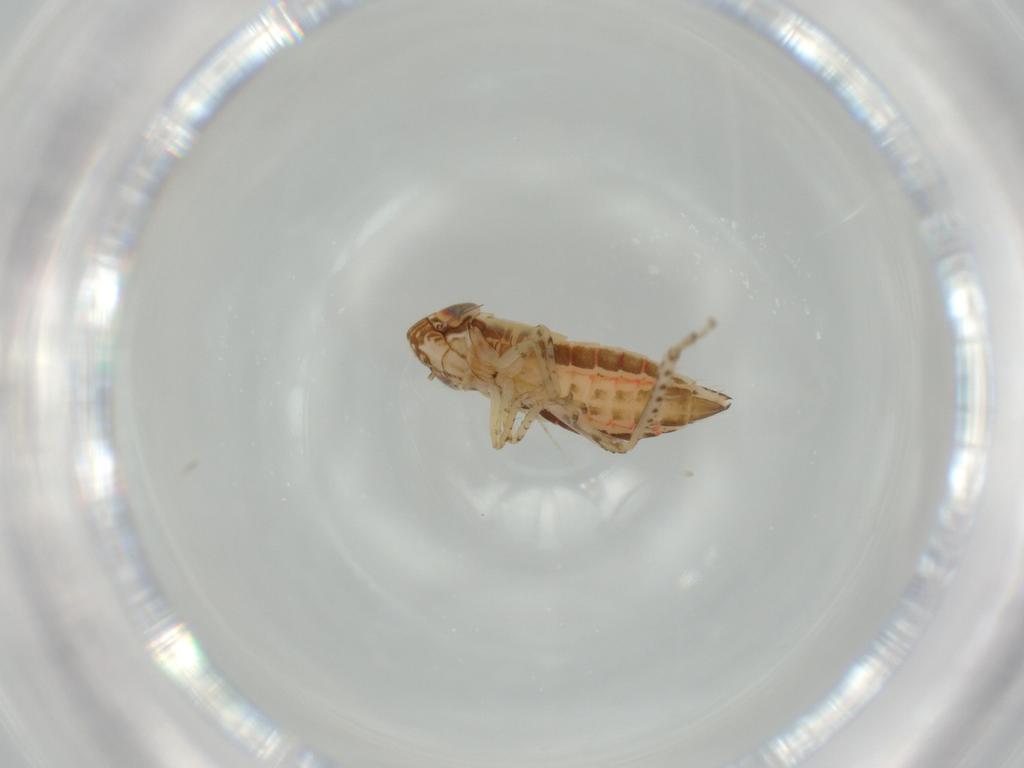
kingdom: Animalia
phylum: Arthropoda
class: Insecta
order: Hemiptera
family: Cicadellidae
